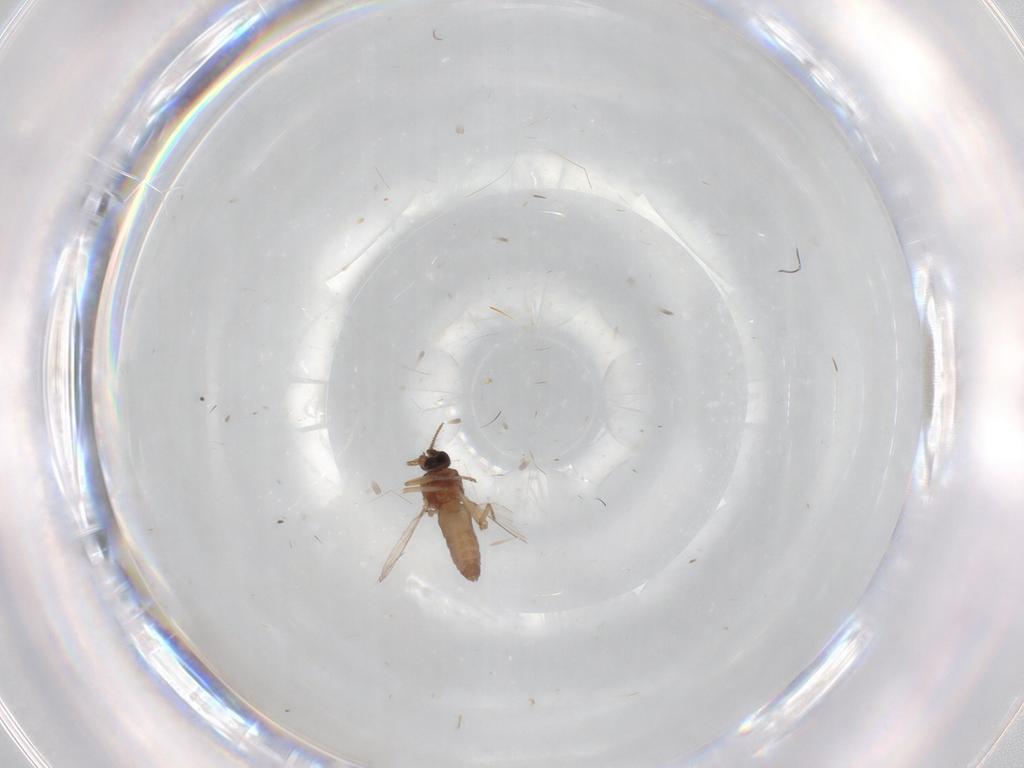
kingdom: Animalia
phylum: Arthropoda
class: Insecta
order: Diptera
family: Ceratopogonidae
